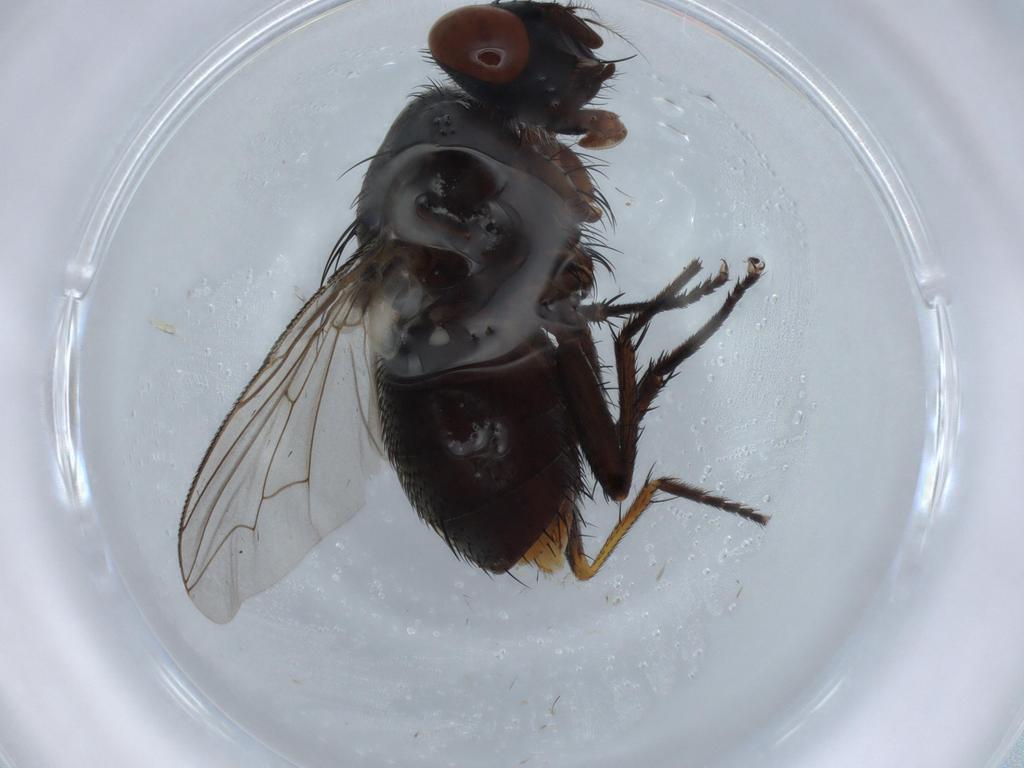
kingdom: Animalia
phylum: Arthropoda
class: Insecta
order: Diptera
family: Sarcophagidae
